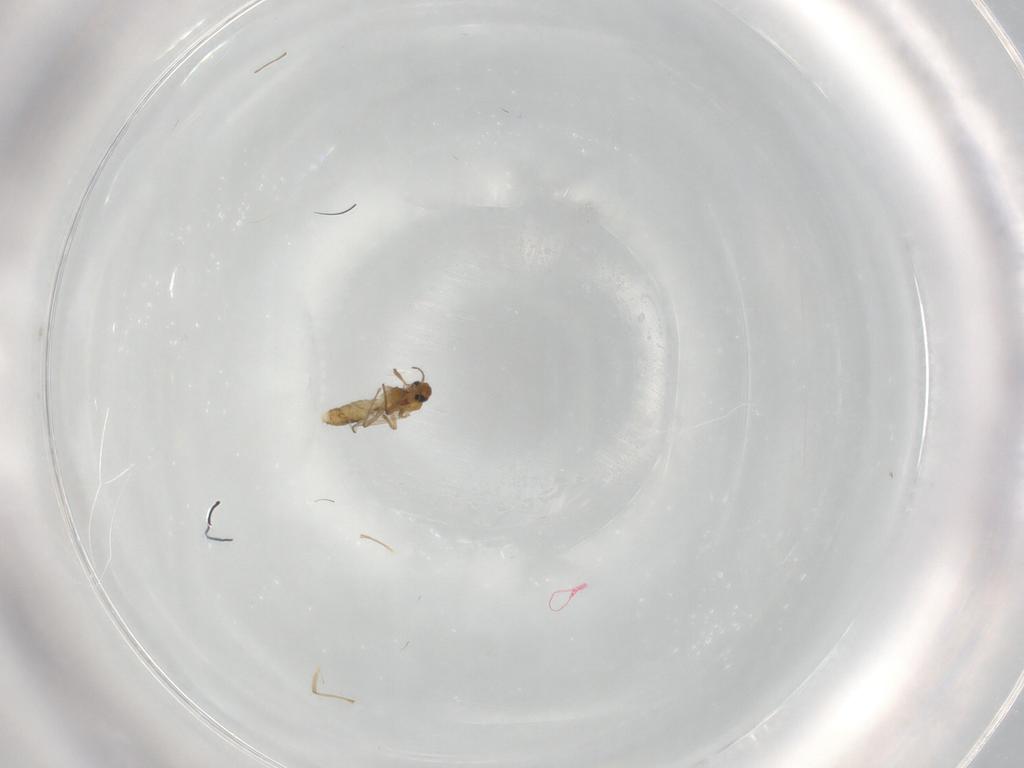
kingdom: Animalia
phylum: Arthropoda
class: Insecta
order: Diptera
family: Chironomidae
